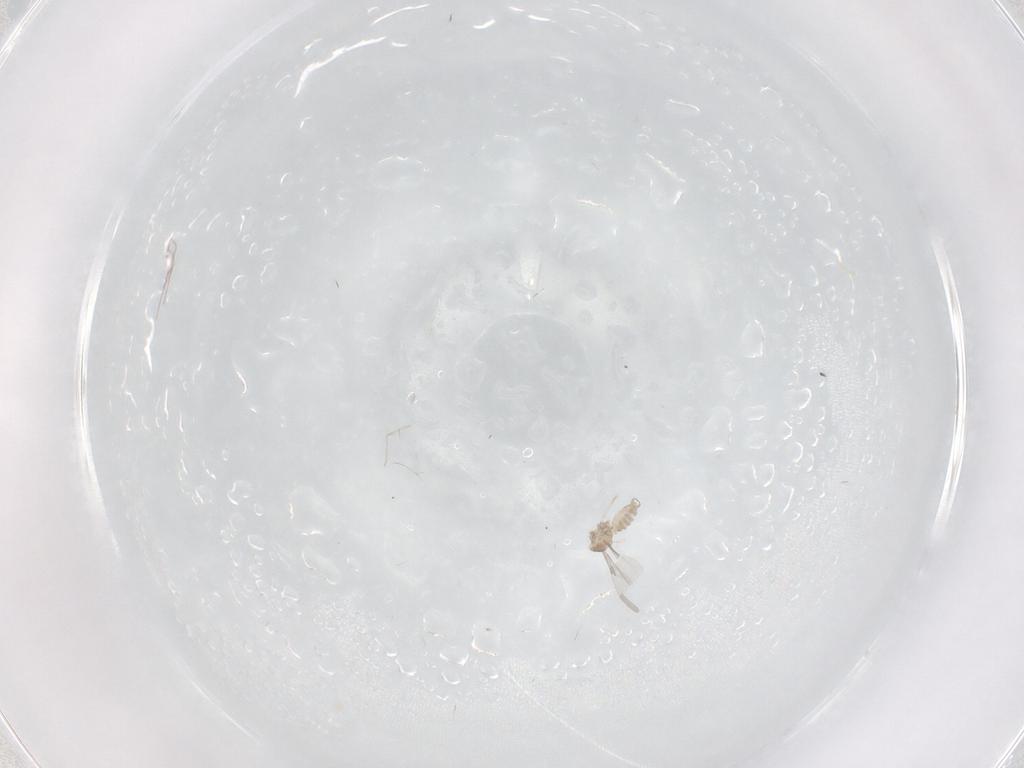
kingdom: Animalia
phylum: Arthropoda
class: Insecta
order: Diptera
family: Cecidomyiidae
